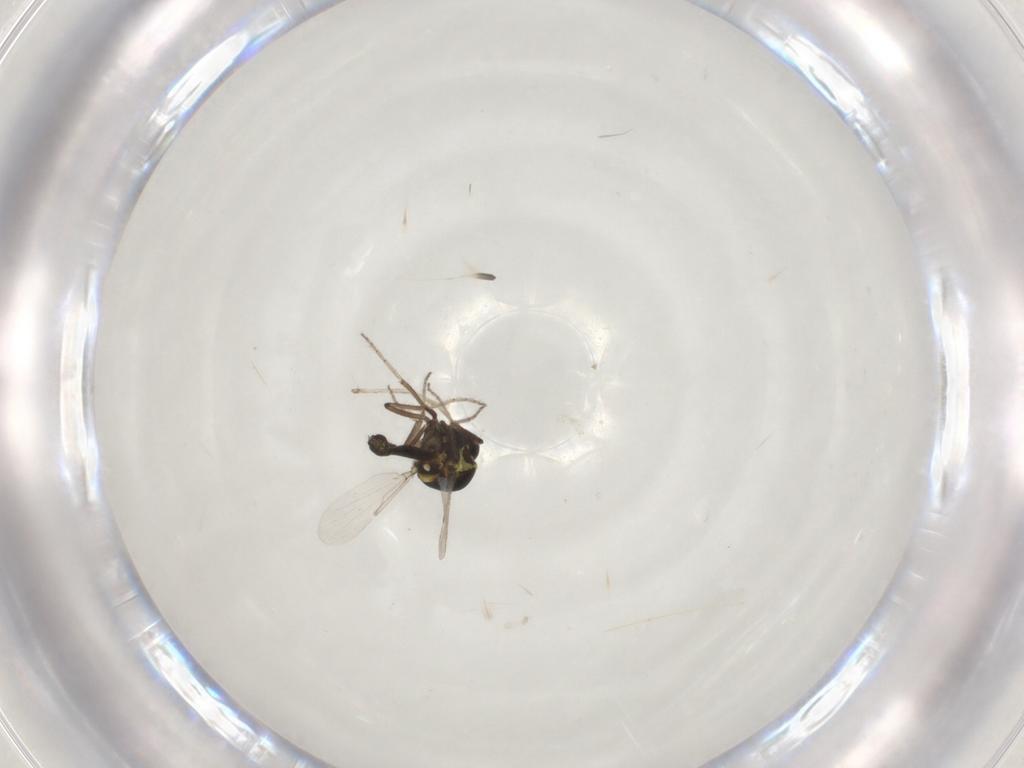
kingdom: Animalia
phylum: Arthropoda
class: Insecta
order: Diptera
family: Ceratopogonidae
